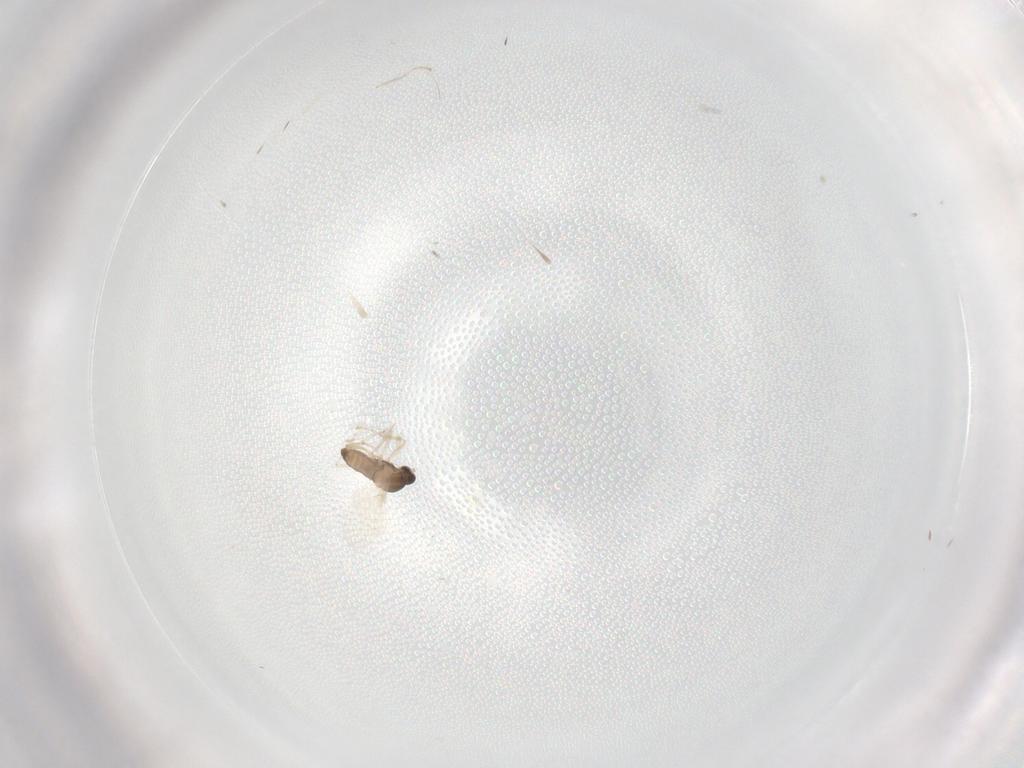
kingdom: Animalia
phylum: Arthropoda
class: Insecta
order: Diptera
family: Cecidomyiidae
